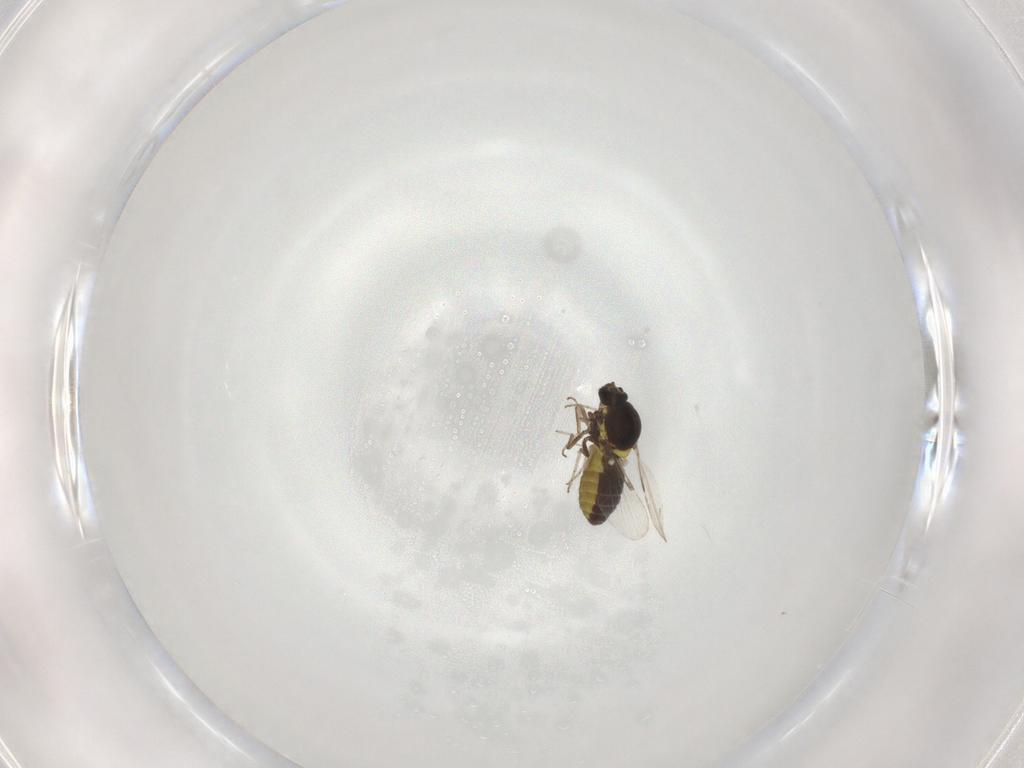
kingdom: Animalia
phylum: Arthropoda
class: Insecta
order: Diptera
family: Ceratopogonidae
